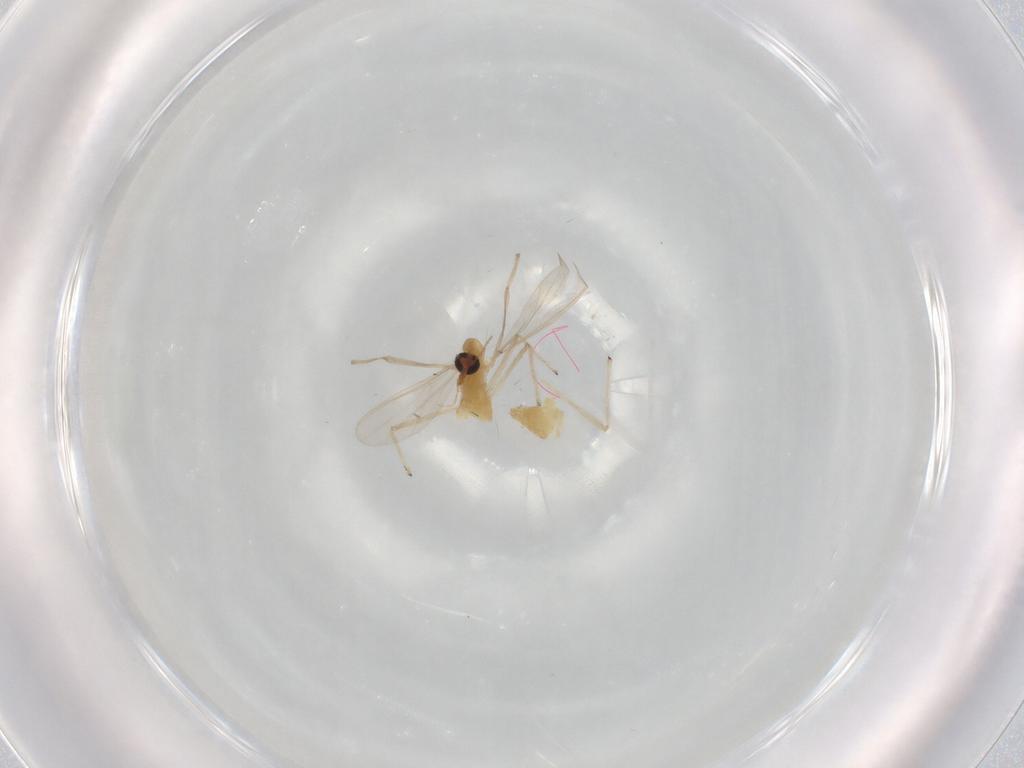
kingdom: Animalia
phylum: Arthropoda
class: Insecta
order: Diptera
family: Chironomidae
